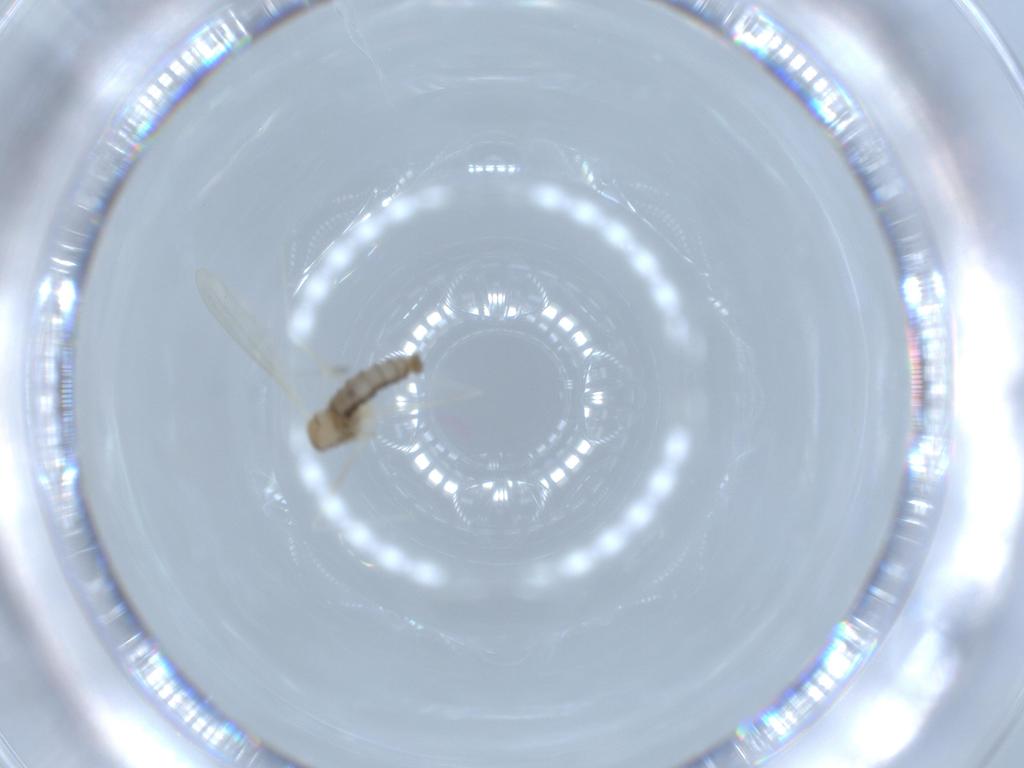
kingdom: Animalia
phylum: Arthropoda
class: Insecta
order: Diptera
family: Cecidomyiidae
